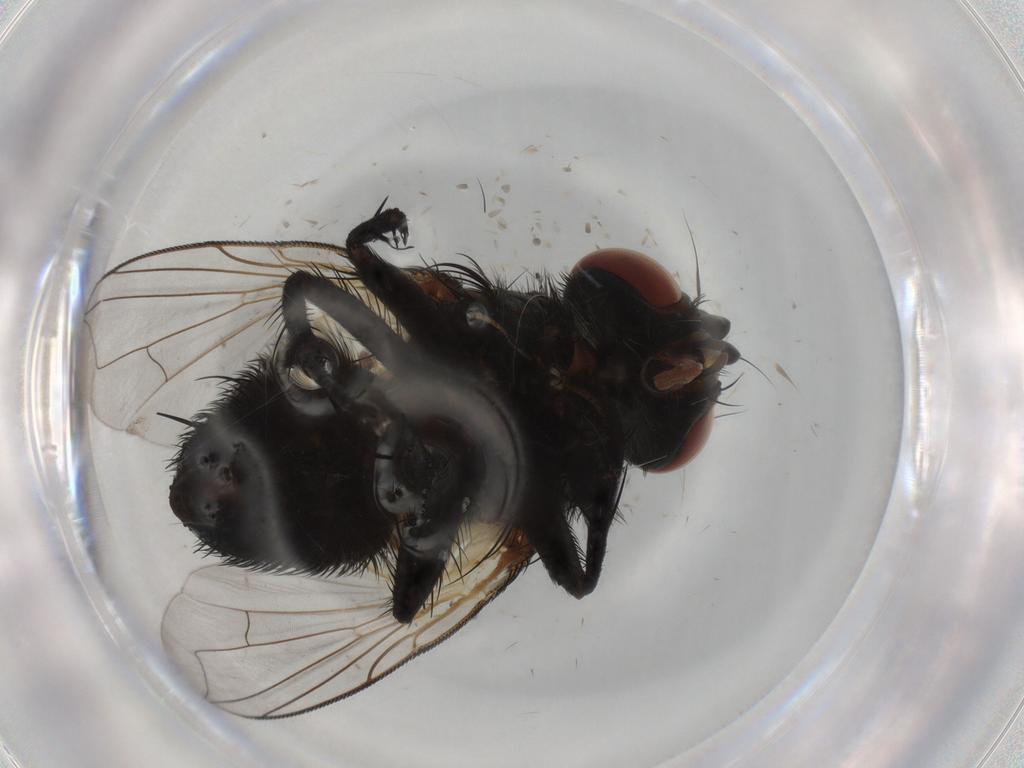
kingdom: Animalia
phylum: Arthropoda
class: Insecta
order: Diptera
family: Tachinidae
